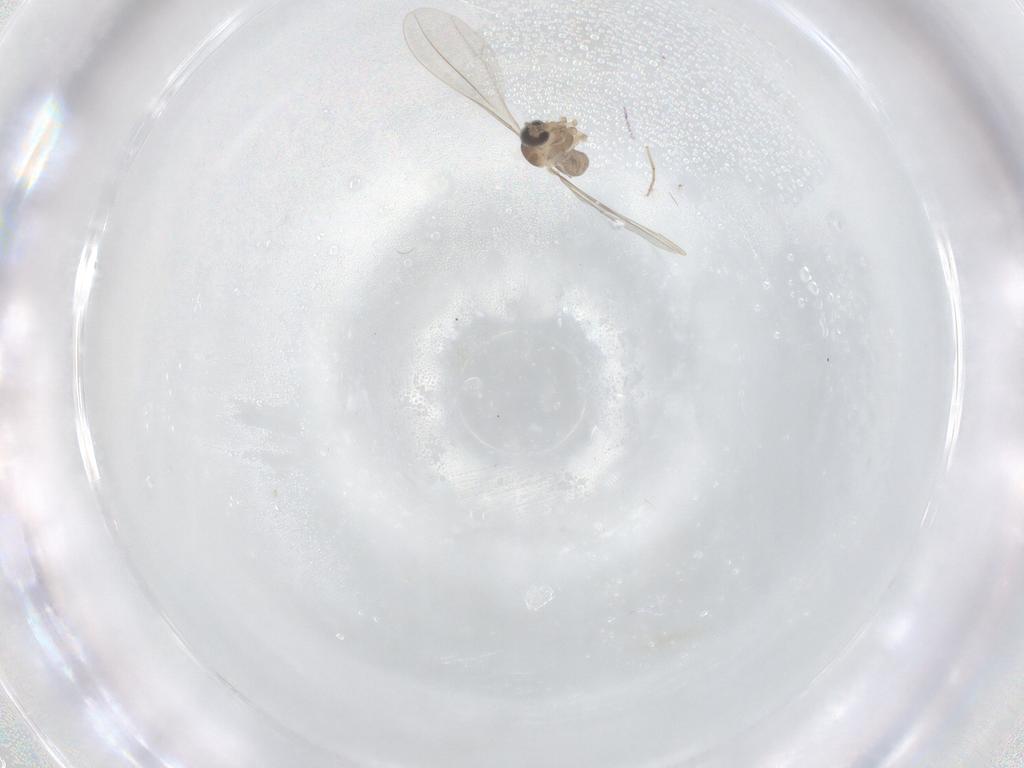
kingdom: Animalia
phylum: Arthropoda
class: Insecta
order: Diptera
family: Cecidomyiidae
